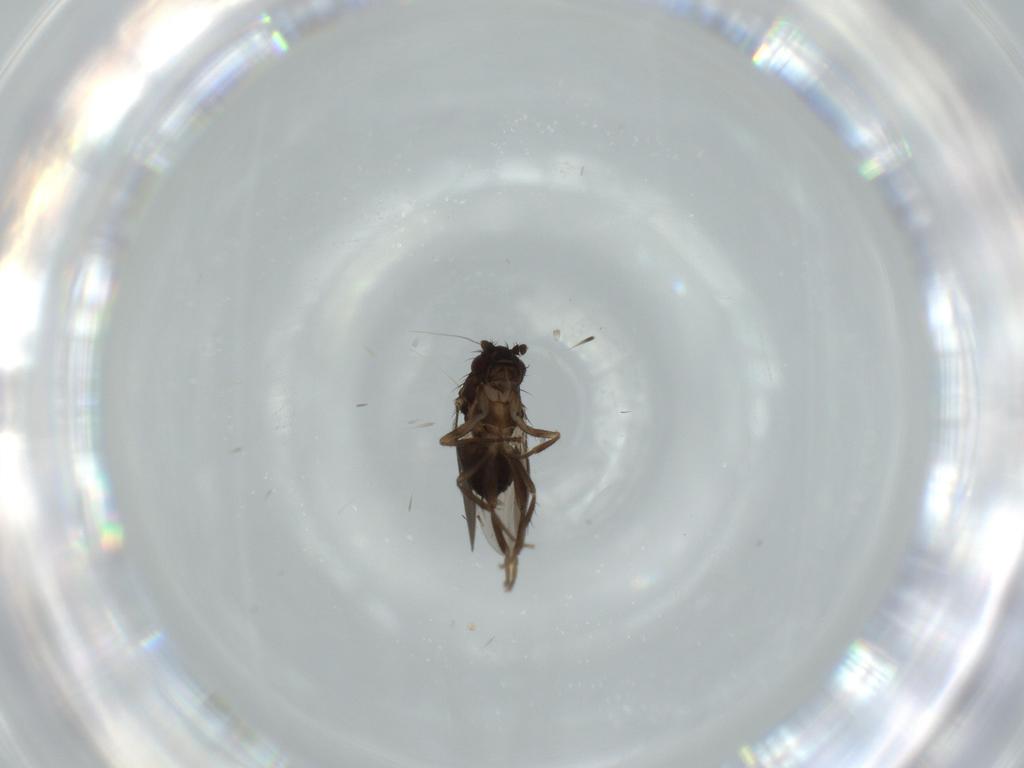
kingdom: Animalia
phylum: Arthropoda
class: Insecta
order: Diptera
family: Sphaeroceridae
